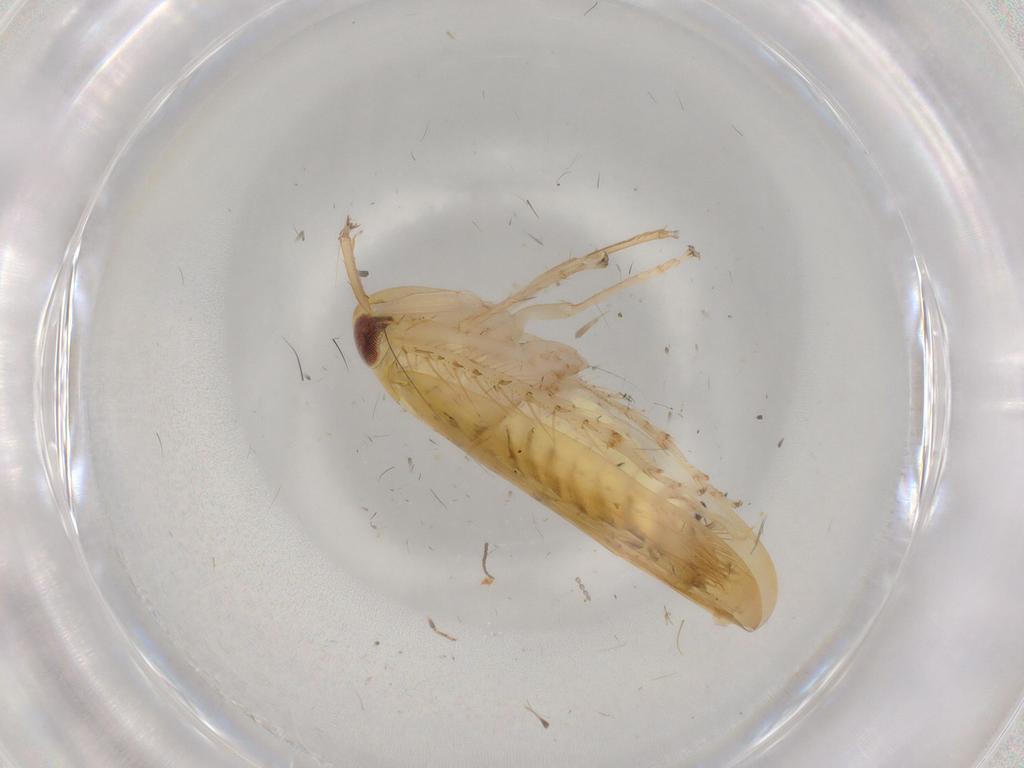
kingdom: Animalia
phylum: Arthropoda
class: Insecta
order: Hemiptera
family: Cicadellidae
